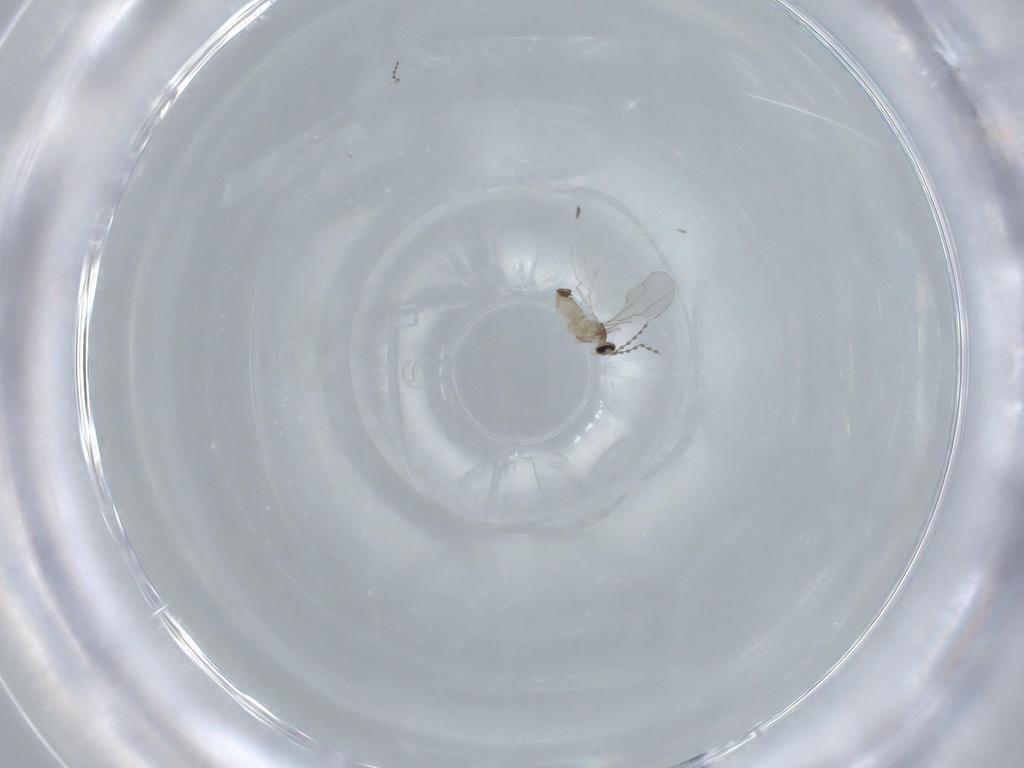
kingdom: Animalia
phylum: Arthropoda
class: Insecta
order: Diptera
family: Cecidomyiidae
